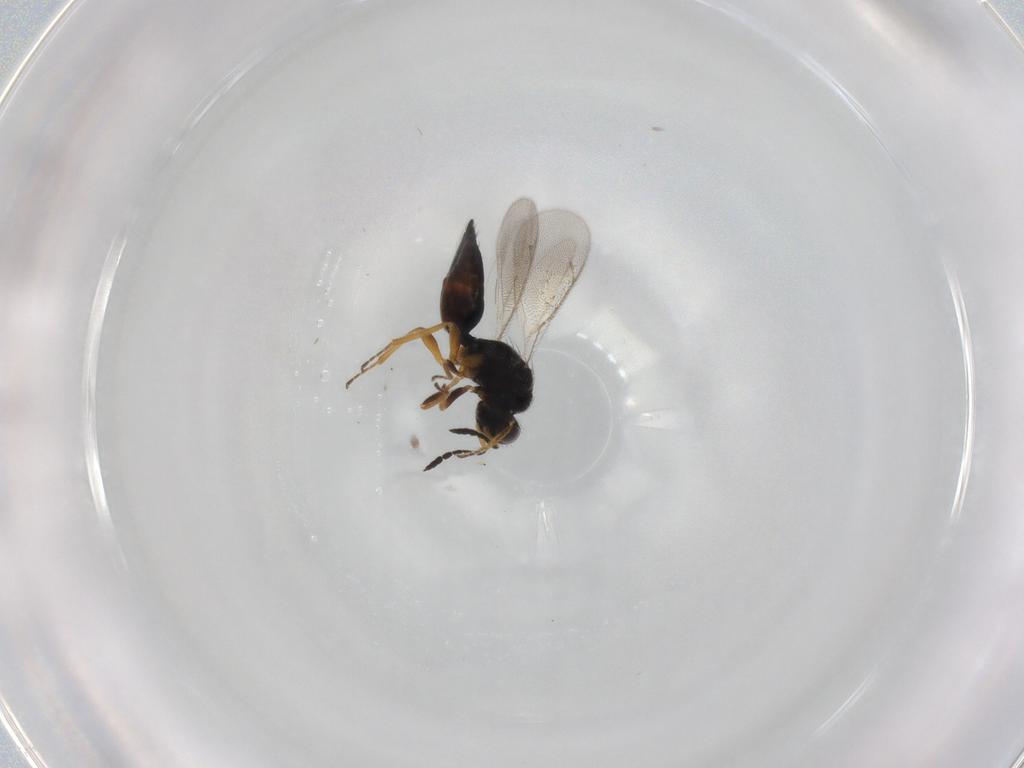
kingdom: Animalia
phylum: Arthropoda
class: Insecta
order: Hymenoptera
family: Eulophidae
